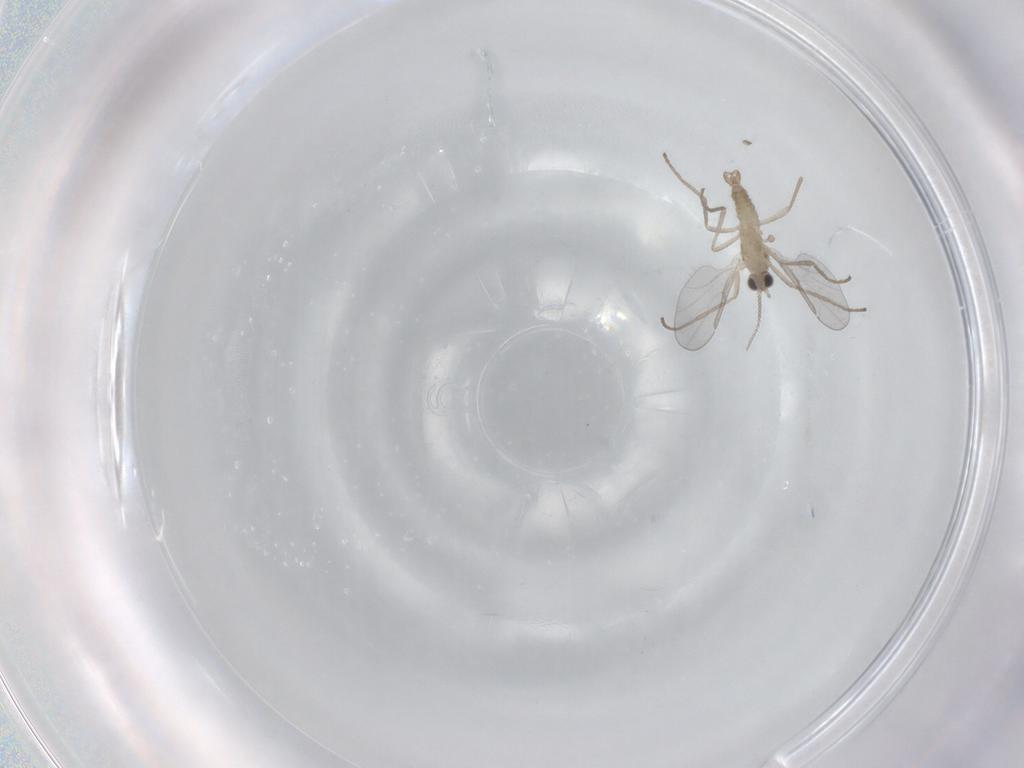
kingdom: Animalia
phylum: Arthropoda
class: Insecta
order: Diptera
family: Cecidomyiidae
